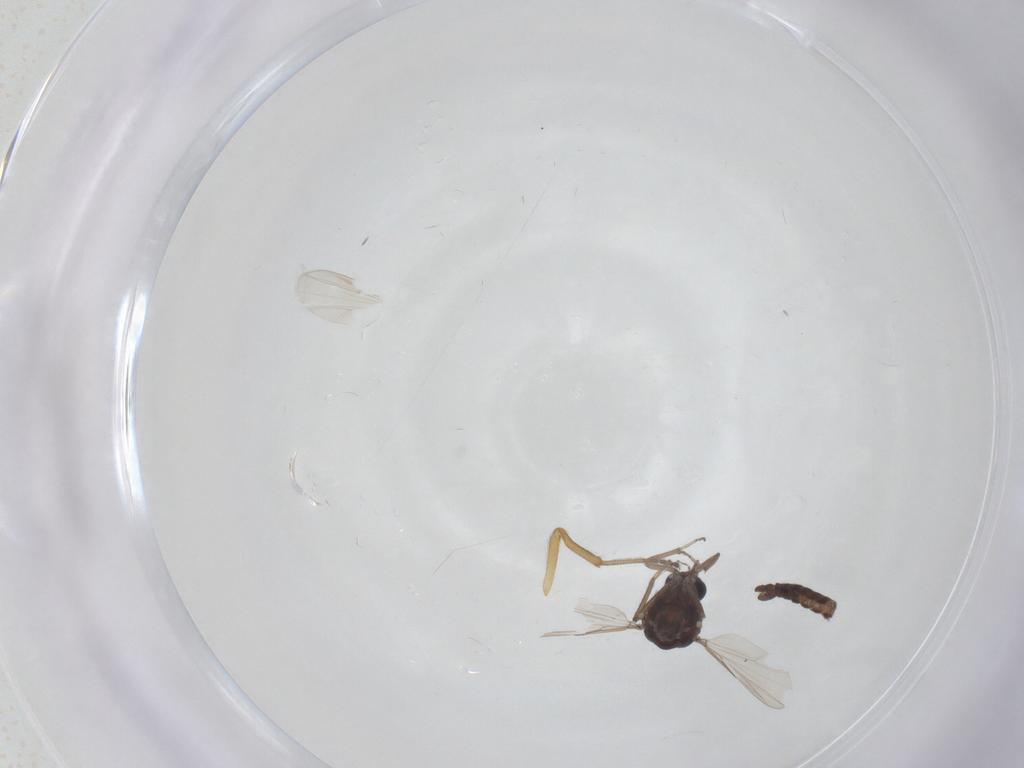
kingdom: Animalia
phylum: Arthropoda
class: Insecta
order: Diptera
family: Ceratopogonidae
